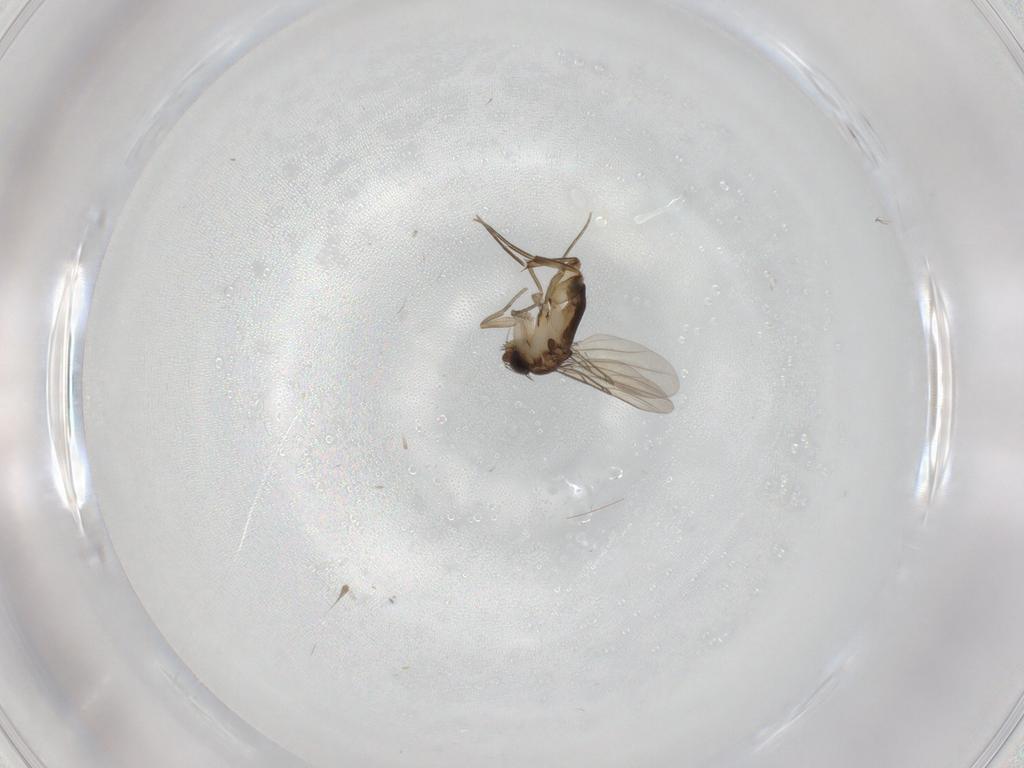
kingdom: Animalia
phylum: Arthropoda
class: Insecta
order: Diptera
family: Phoridae
